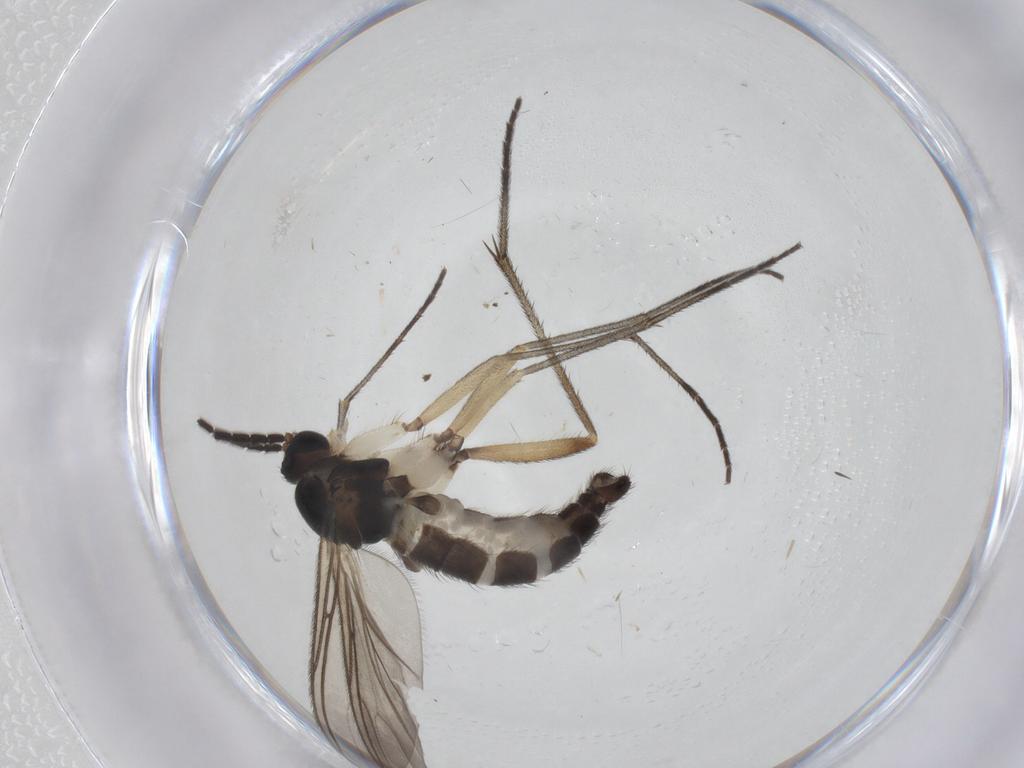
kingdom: Animalia
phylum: Arthropoda
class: Insecta
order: Diptera
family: Sciaridae
